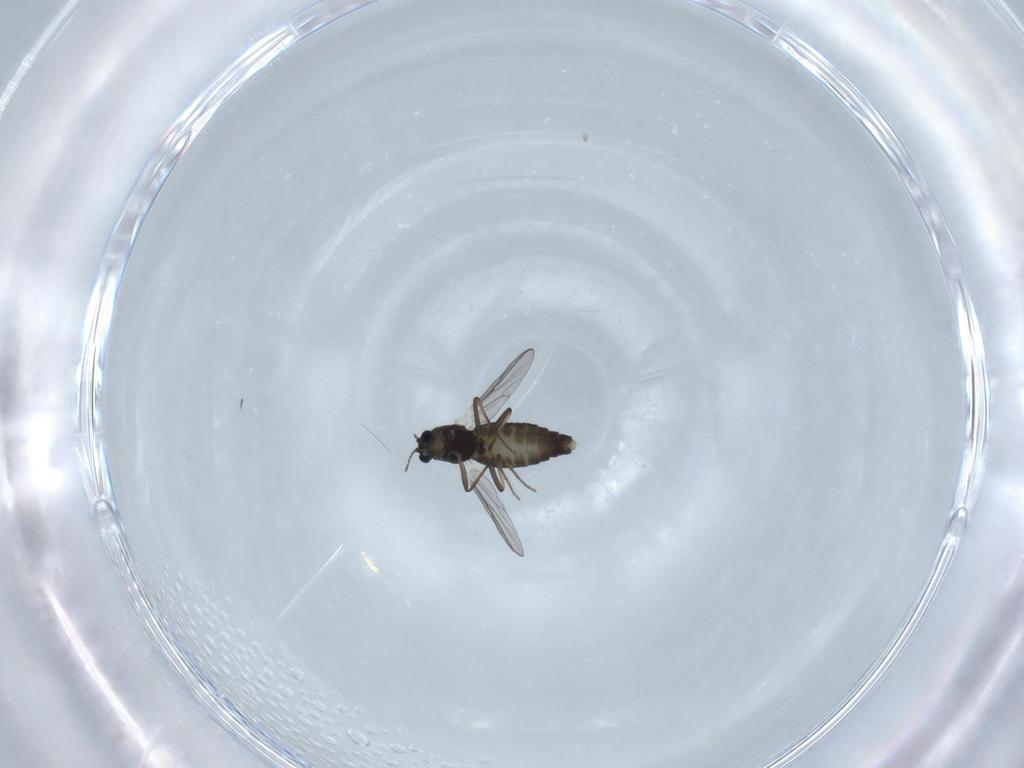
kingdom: Animalia
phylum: Arthropoda
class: Insecta
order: Diptera
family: Chironomidae
